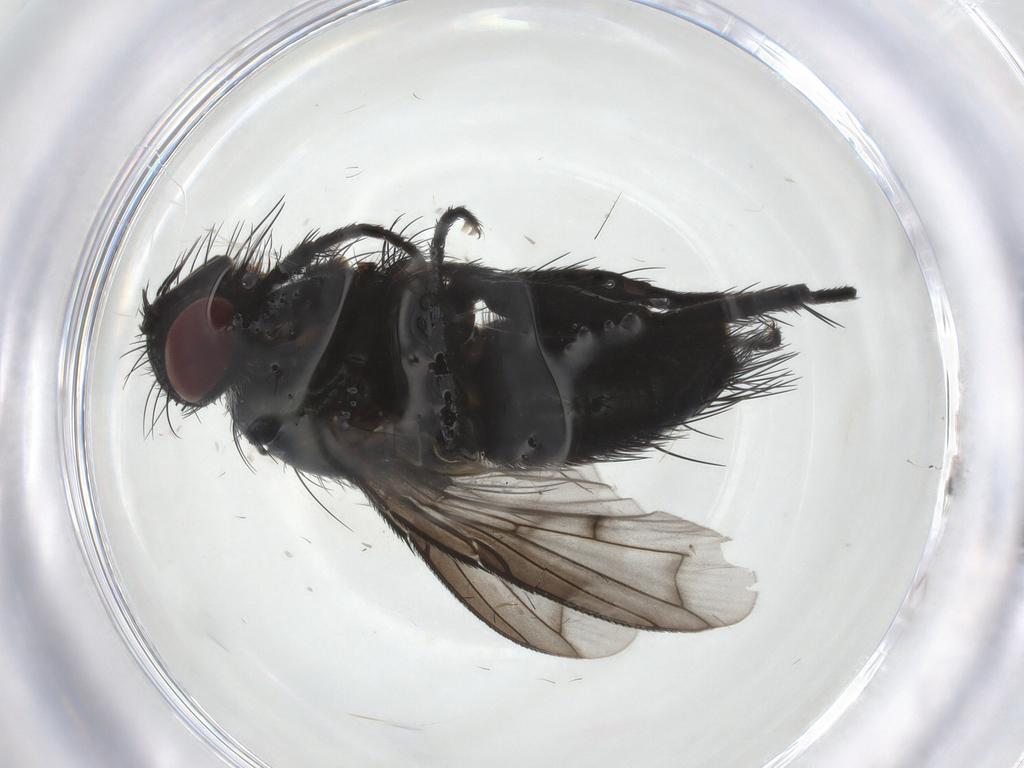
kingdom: Animalia
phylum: Arthropoda
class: Insecta
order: Diptera
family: Tachinidae
